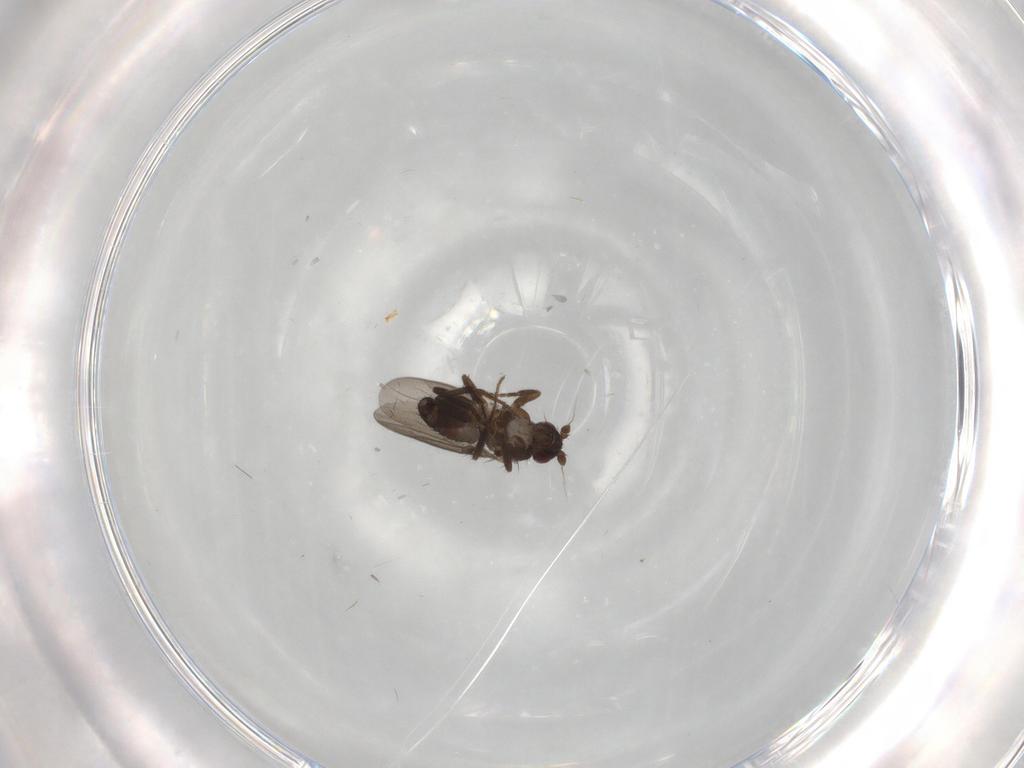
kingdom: Animalia
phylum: Arthropoda
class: Insecta
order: Diptera
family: Sphaeroceridae
